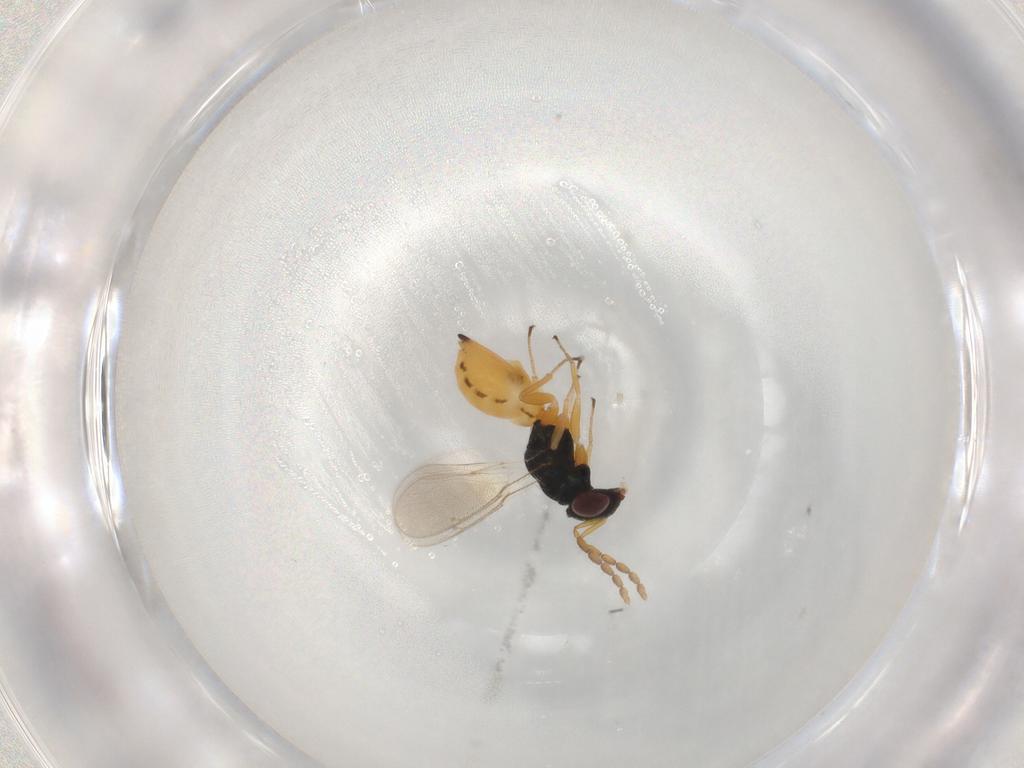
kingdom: Animalia
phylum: Arthropoda
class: Insecta
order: Hymenoptera
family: Eulophidae
